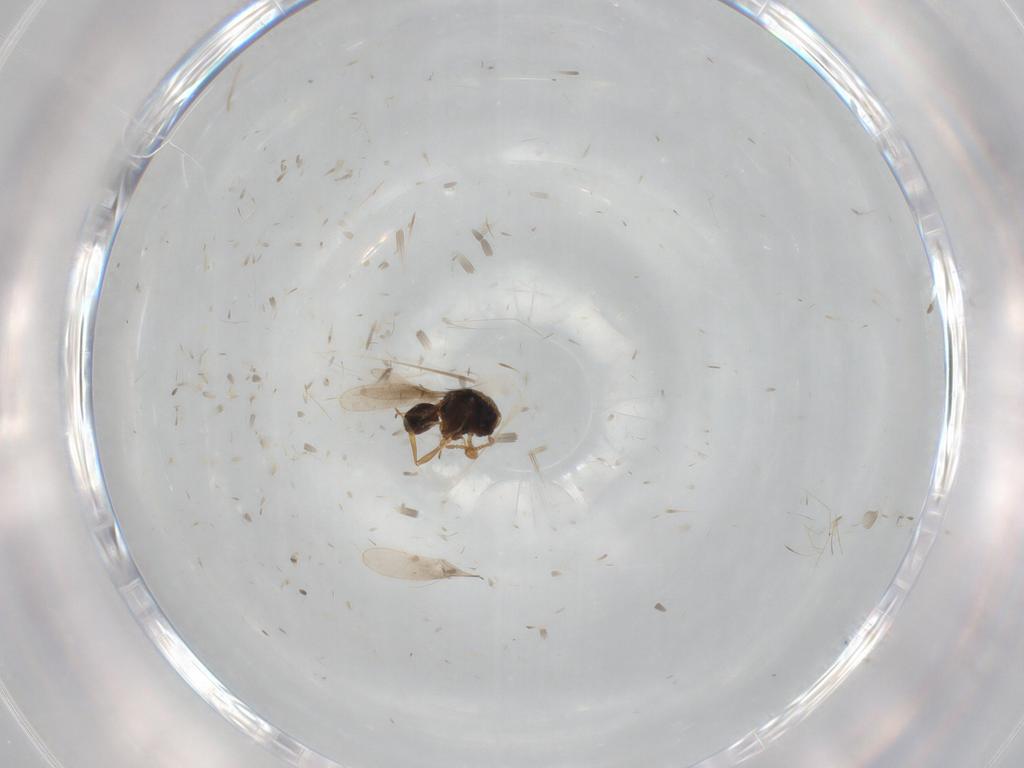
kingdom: Animalia
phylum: Arthropoda
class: Insecta
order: Hymenoptera
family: Scelionidae
